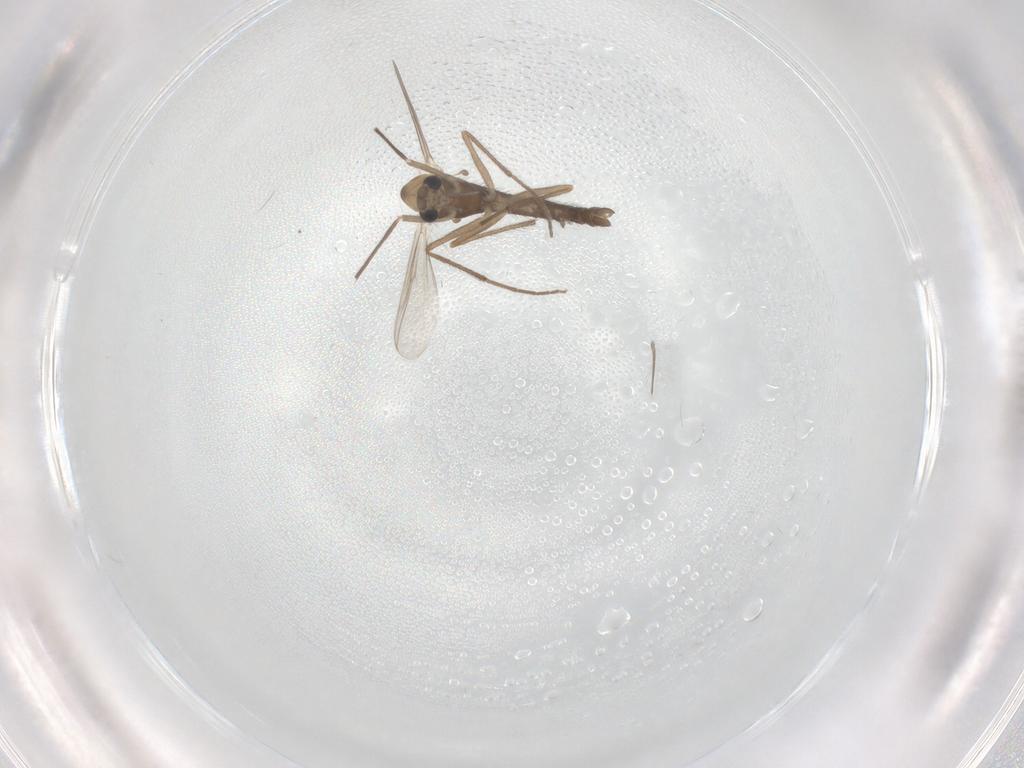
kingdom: Animalia
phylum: Arthropoda
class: Insecta
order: Diptera
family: Chironomidae
